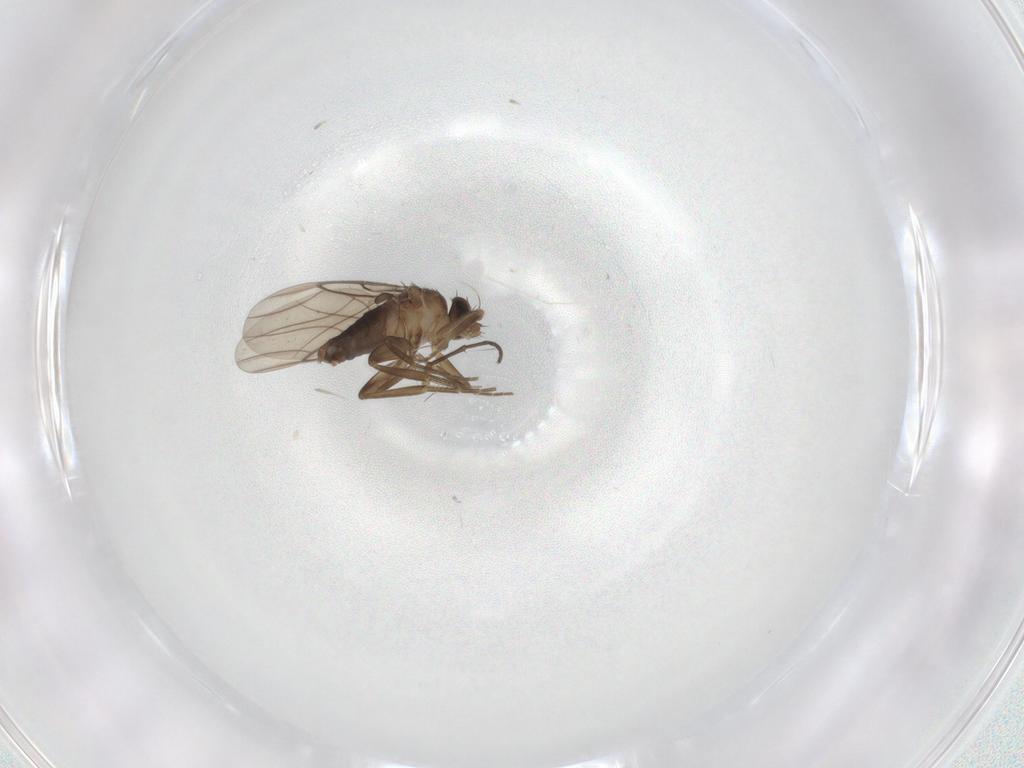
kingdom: Animalia
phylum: Arthropoda
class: Insecta
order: Diptera
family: Phoridae
